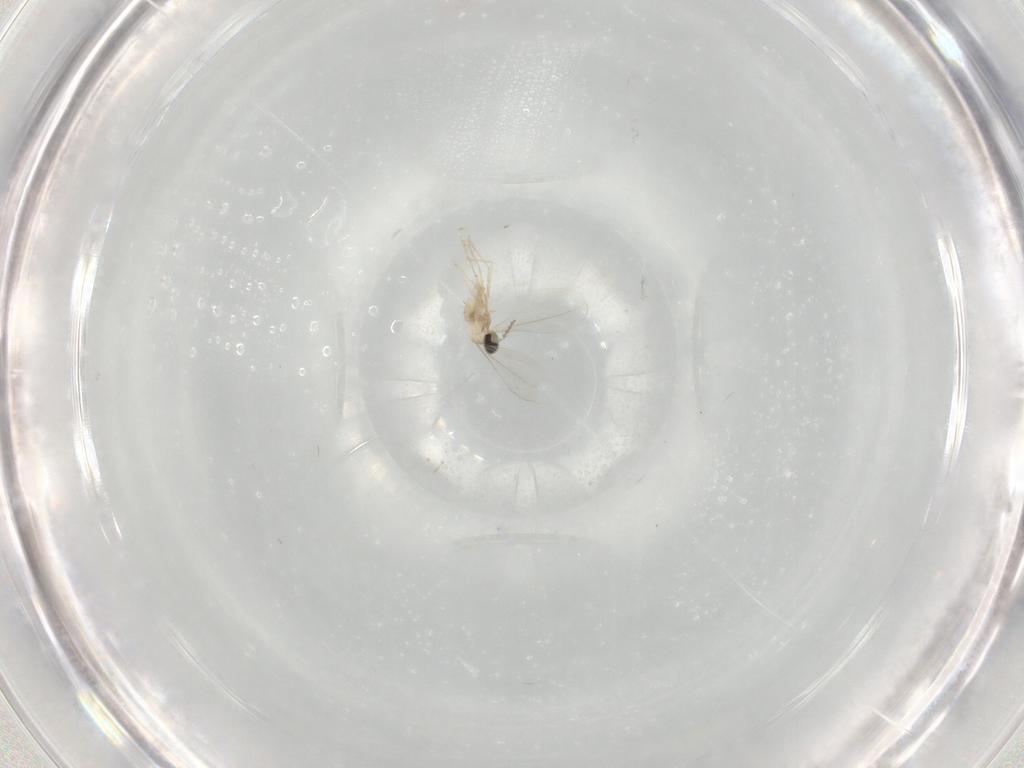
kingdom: Animalia
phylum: Arthropoda
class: Insecta
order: Diptera
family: Cecidomyiidae
